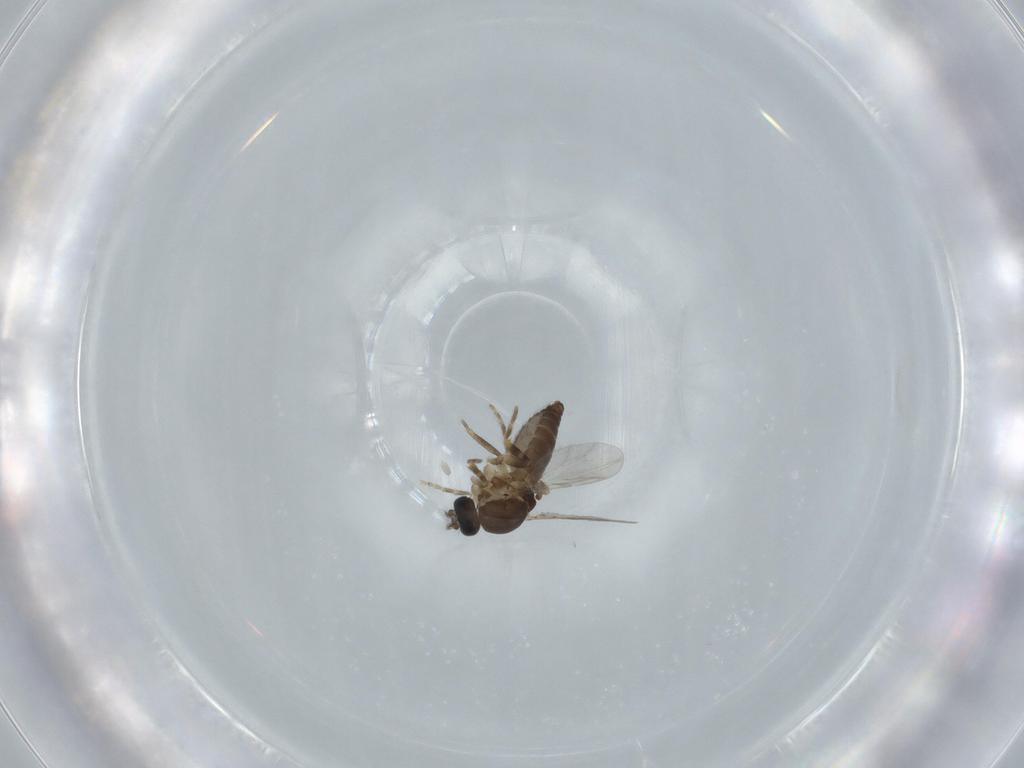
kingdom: Animalia
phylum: Arthropoda
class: Insecta
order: Diptera
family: Ceratopogonidae
